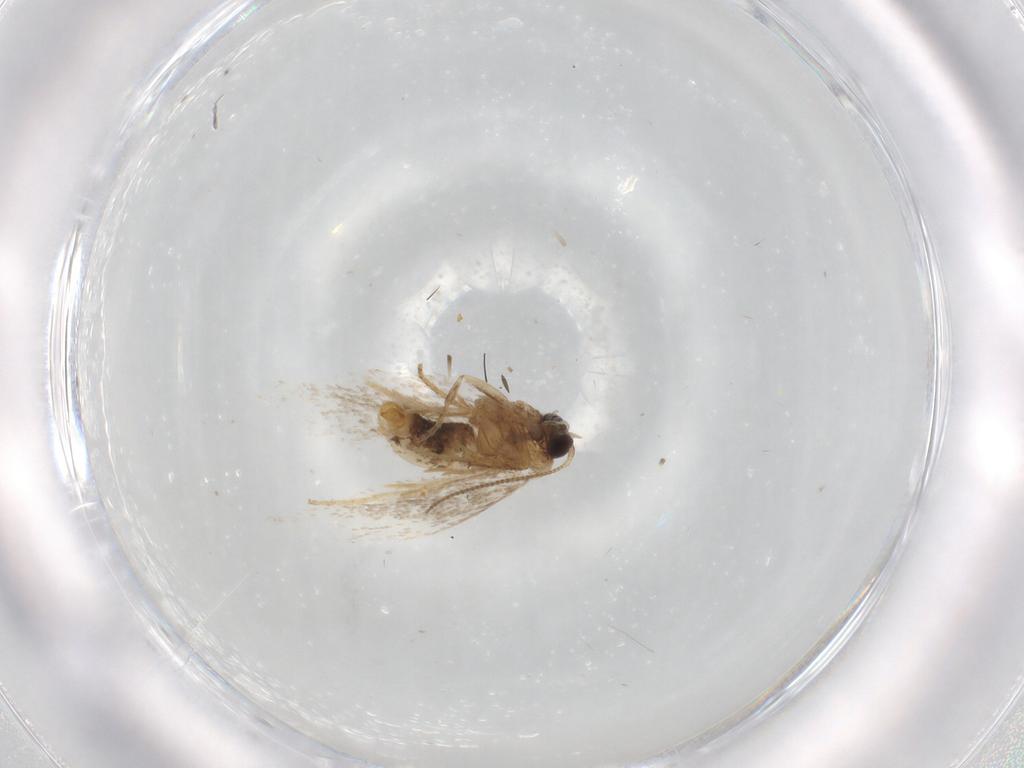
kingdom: Animalia
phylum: Arthropoda
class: Insecta
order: Lepidoptera
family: Nepticulidae
